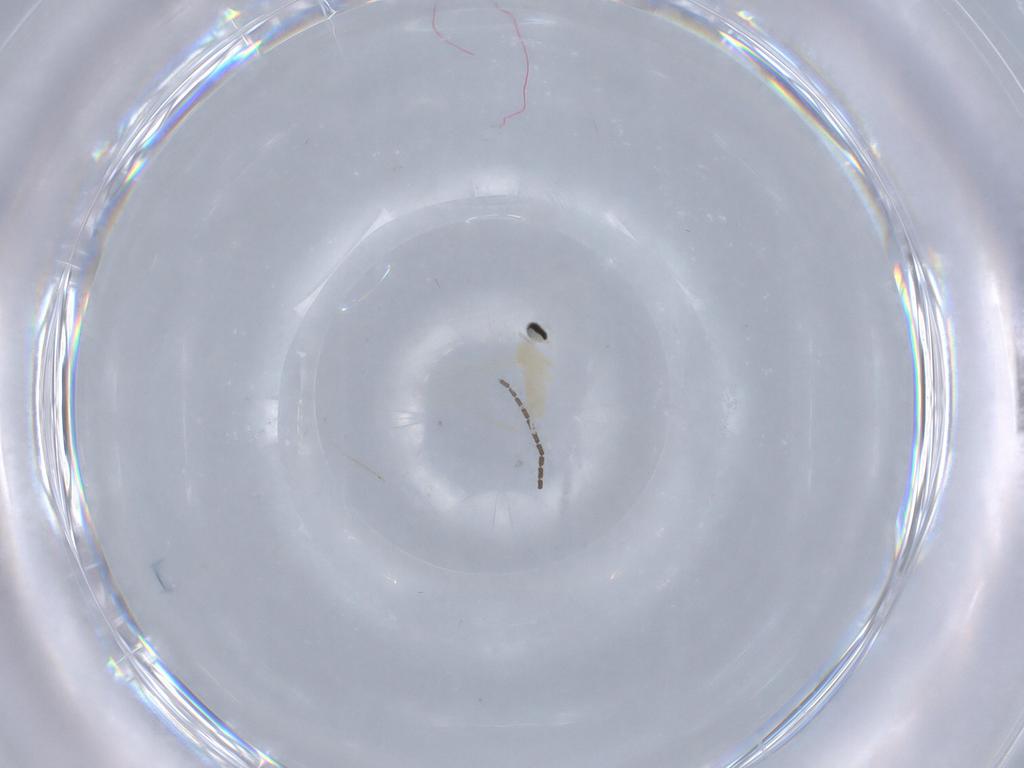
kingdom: Animalia
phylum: Arthropoda
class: Insecta
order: Diptera
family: Sciaridae
